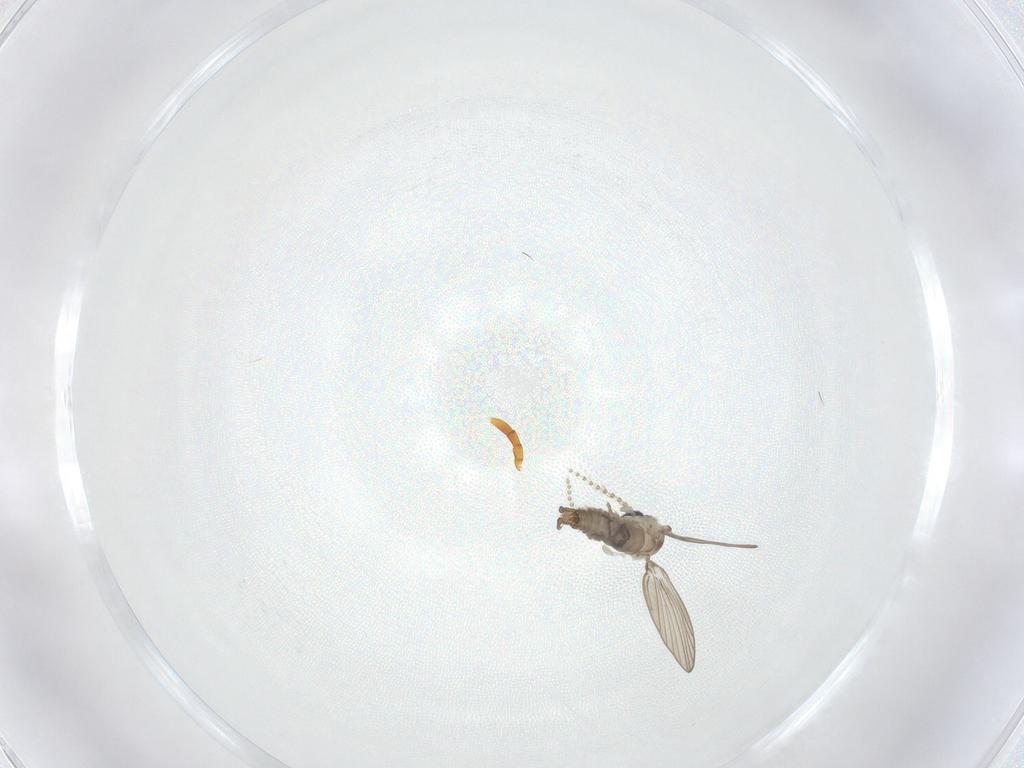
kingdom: Animalia
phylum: Arthropoda
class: Insecta
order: Diptera
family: Psychodidae
